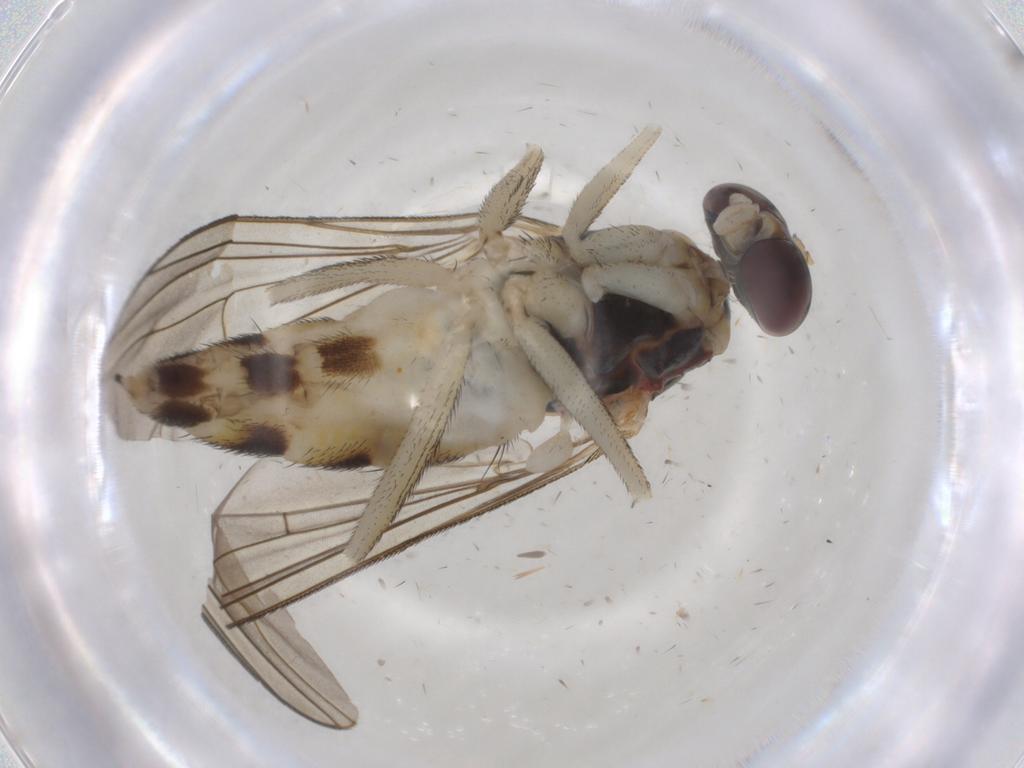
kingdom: Animalia
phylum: Arthropoda
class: Insecta
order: Diptera
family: Dolichopodidae
